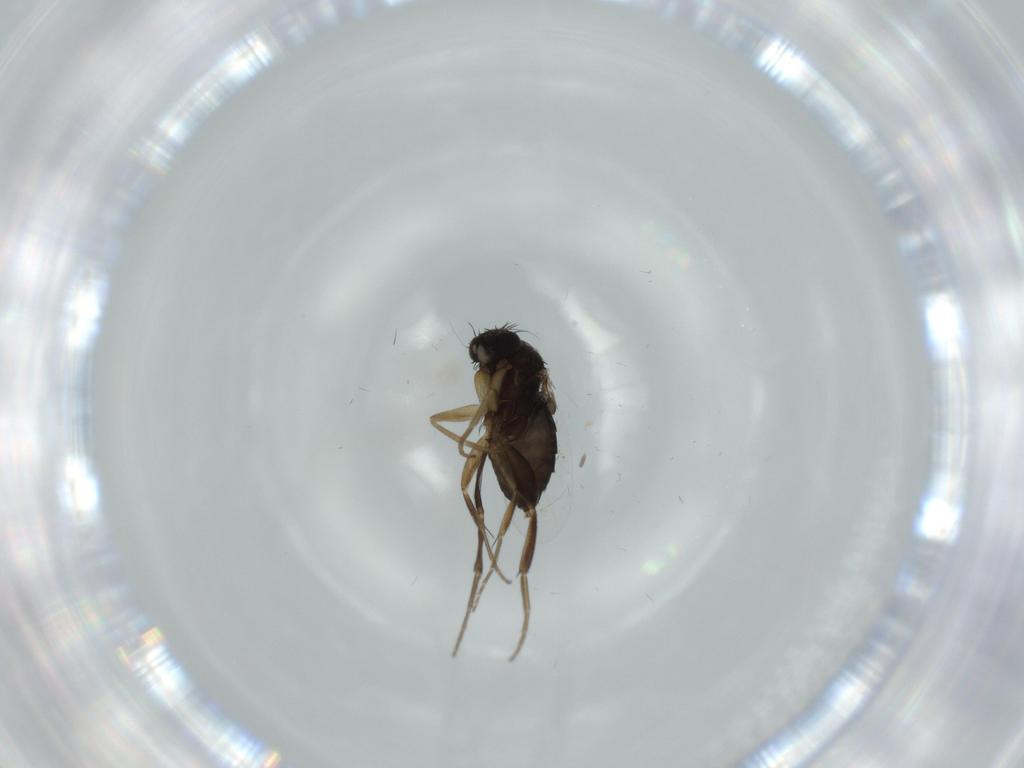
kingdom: Animalia
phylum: Arthropoda
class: Insecta
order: Diptera
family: Phoridae
